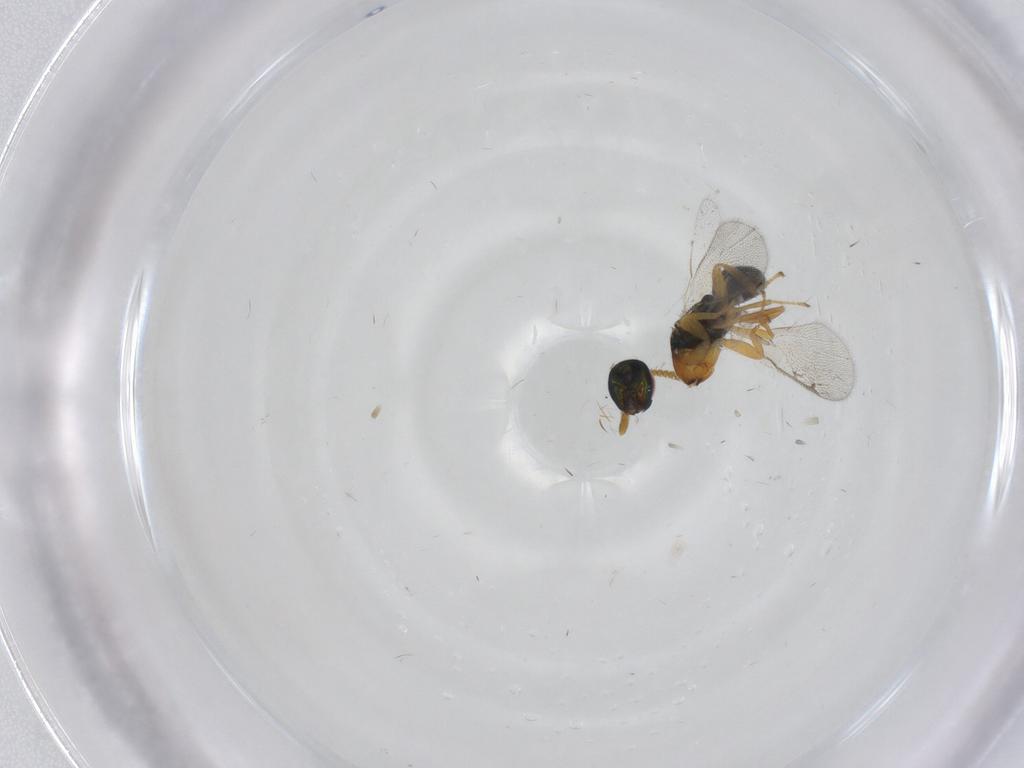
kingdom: Animalia
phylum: Arthropoda
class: Insecta
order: Hymenoptera
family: Torymidae
